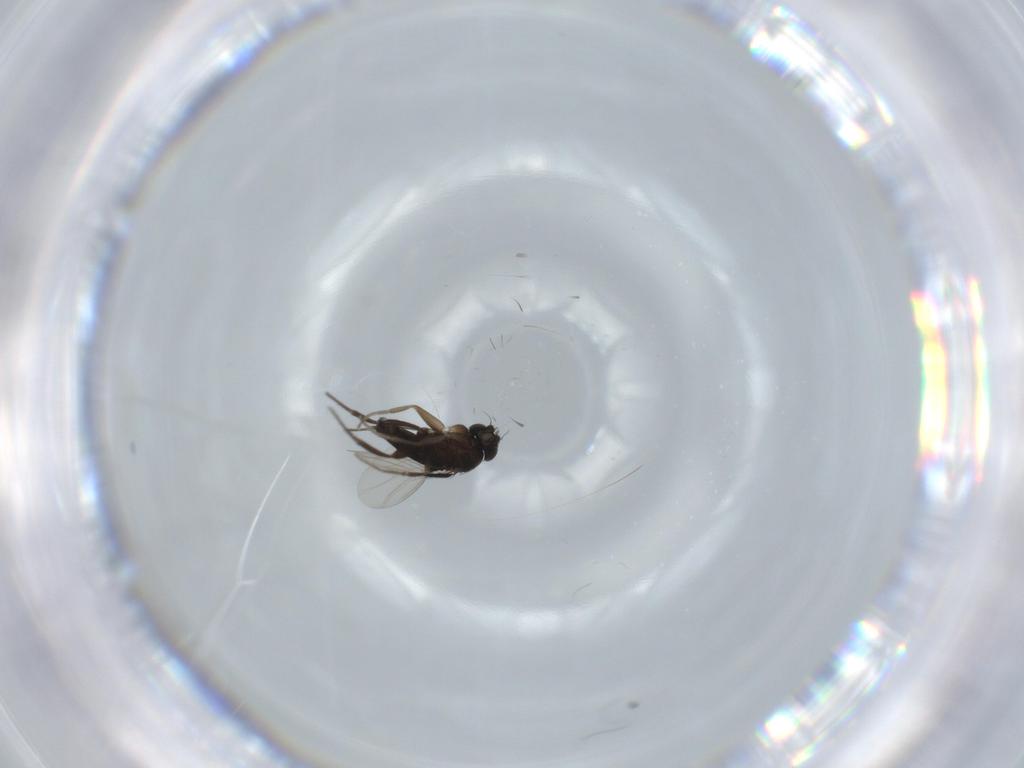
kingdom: Animalia
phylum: Arthropoda
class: Insecta
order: Diptera
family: Phoridae
